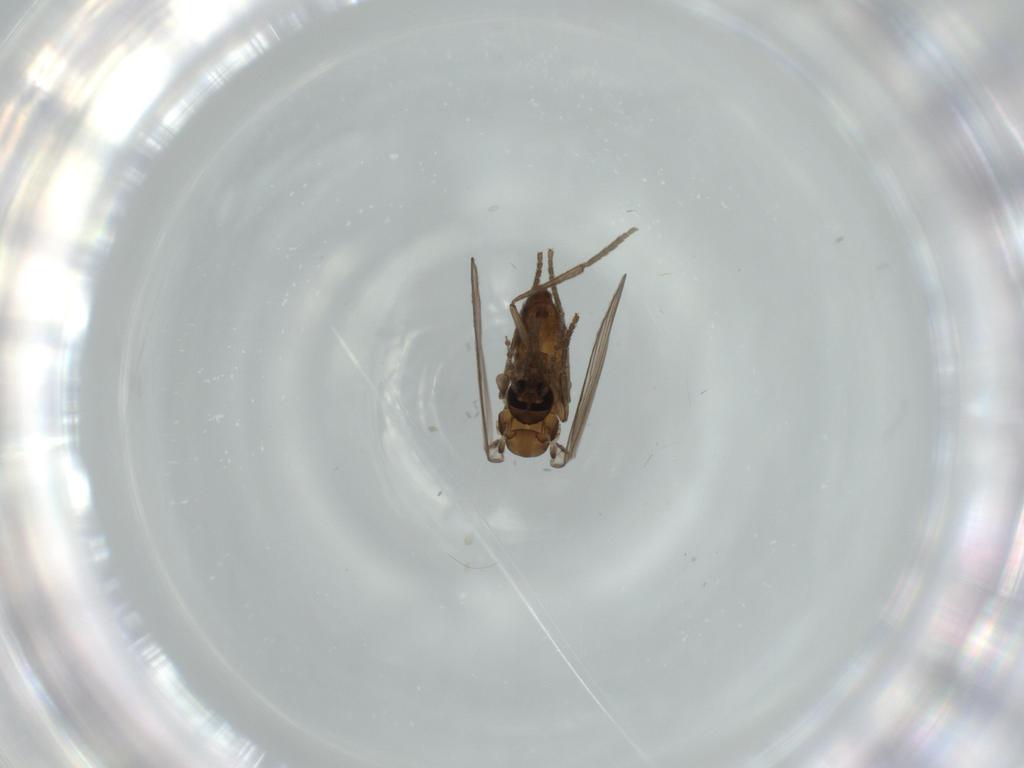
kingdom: Animalia
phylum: Arthropoda
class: Insecta
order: Diptera
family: Psychodidae
